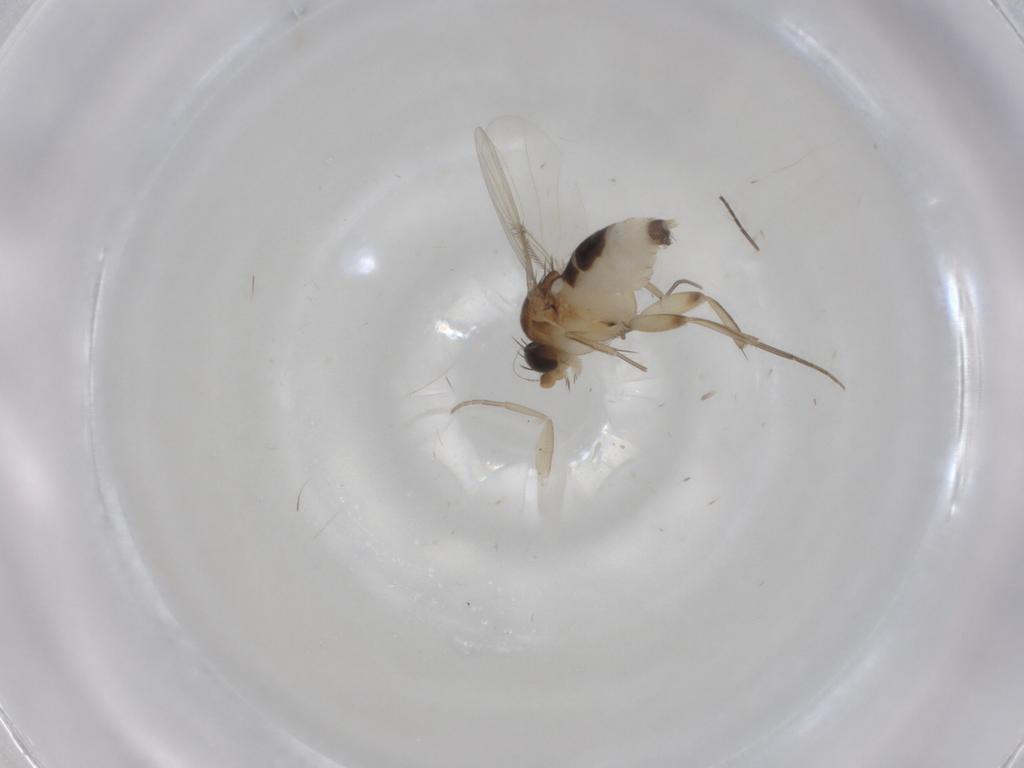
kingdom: Animalia
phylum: Arthropoda
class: Insecta
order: Diptera
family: Phoridae
